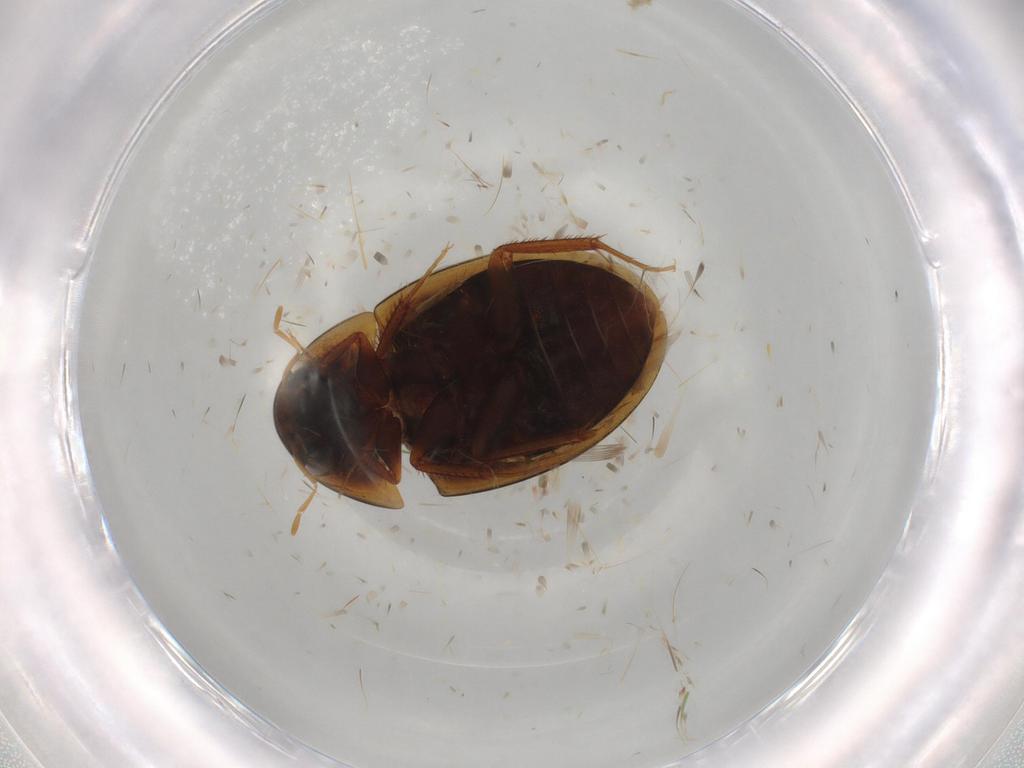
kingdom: Animalia
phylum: Arthropoda
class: Insecta
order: Coleoptera
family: Hydrophilidae
